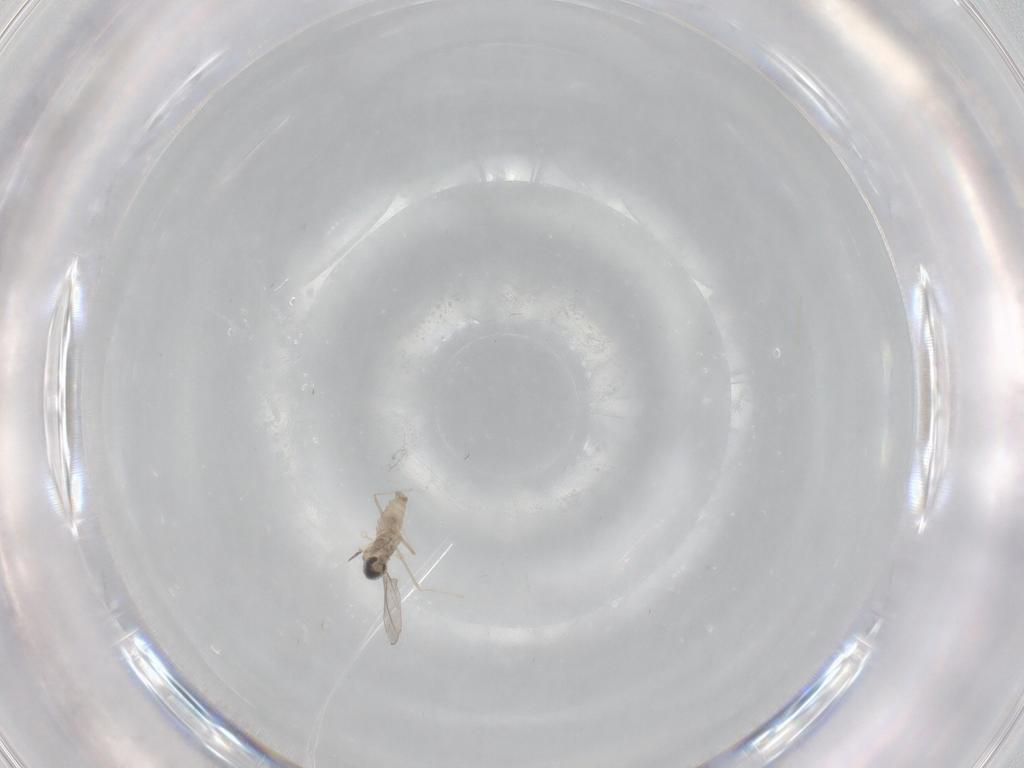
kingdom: Animalia
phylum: Arthropoda
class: Insecta
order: Diptera
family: Cecidomyiidae
